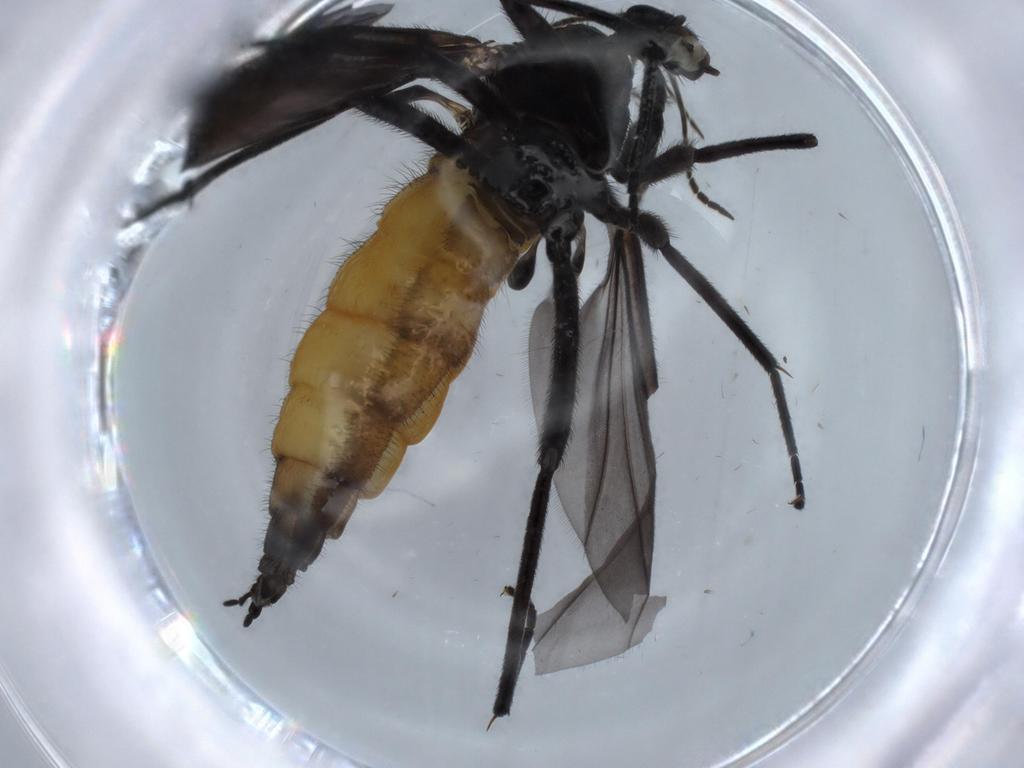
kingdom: Animalia
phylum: Arthropoda
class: Insecta
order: Diptera
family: Calliphoridae
